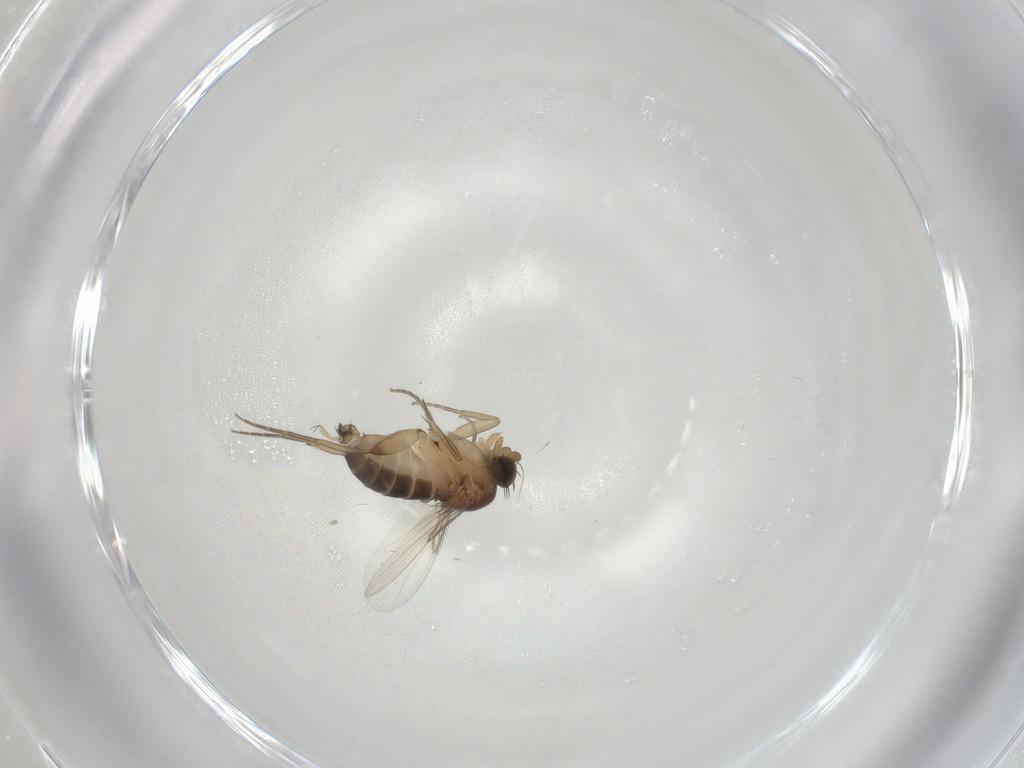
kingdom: Animalia
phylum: Arthropoda
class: Insecta
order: Diptera
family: Phoridae
